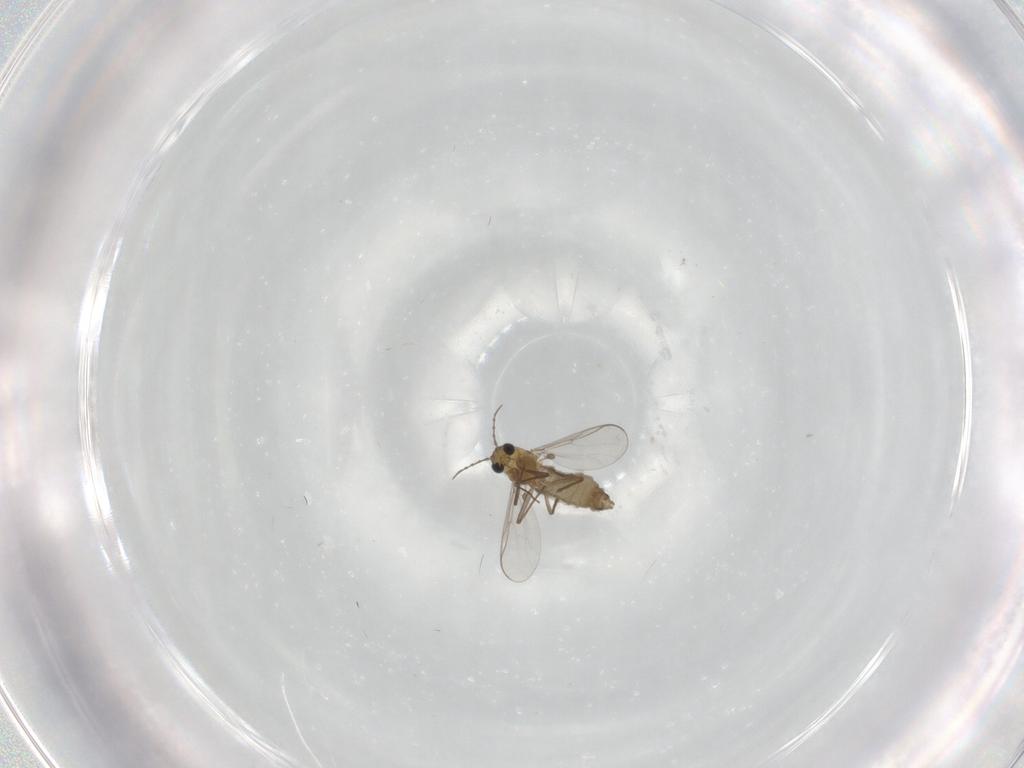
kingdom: Animalia
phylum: Arthropoda
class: Insecta
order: Diptera
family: Chironomidae
